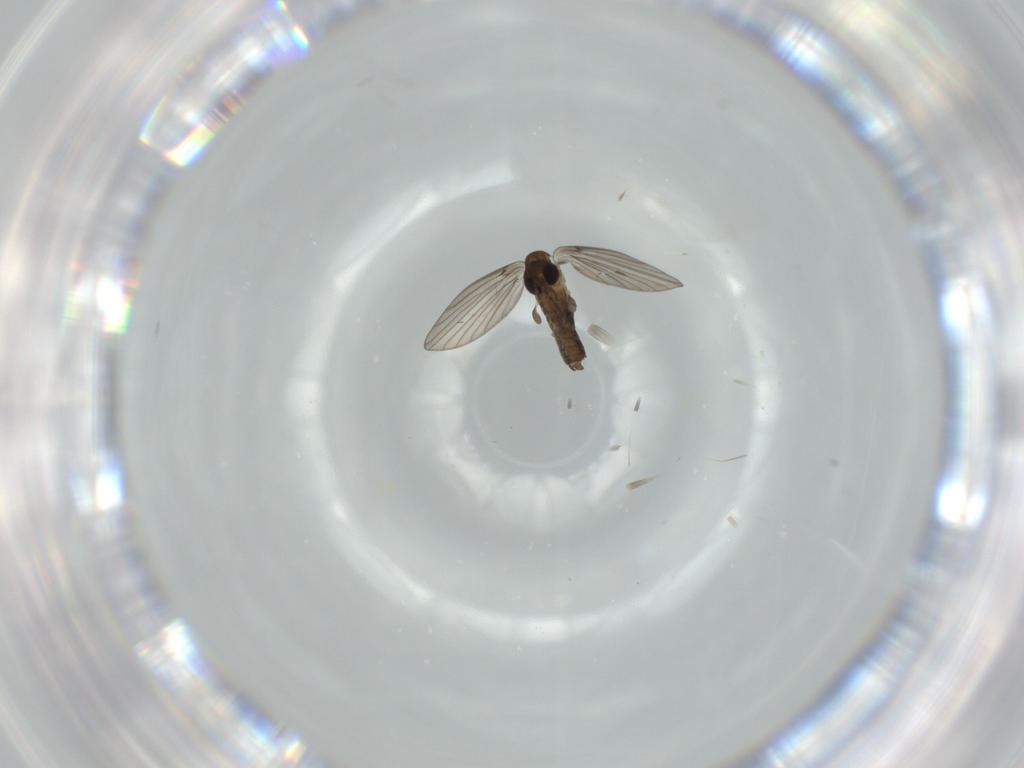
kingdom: Animalia
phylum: Arthropoda
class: Insecta
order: Diptera
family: Psychodidae
